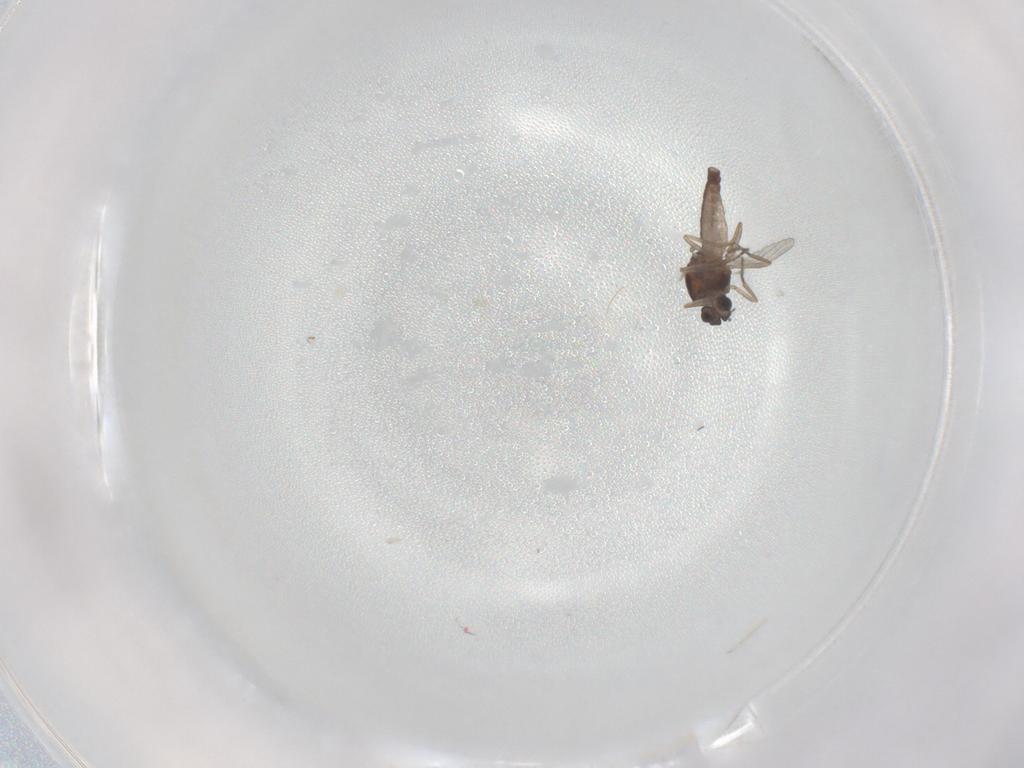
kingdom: Animalia
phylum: Arthropoda
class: Insecta
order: Diptera
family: Ceratopogonidae
